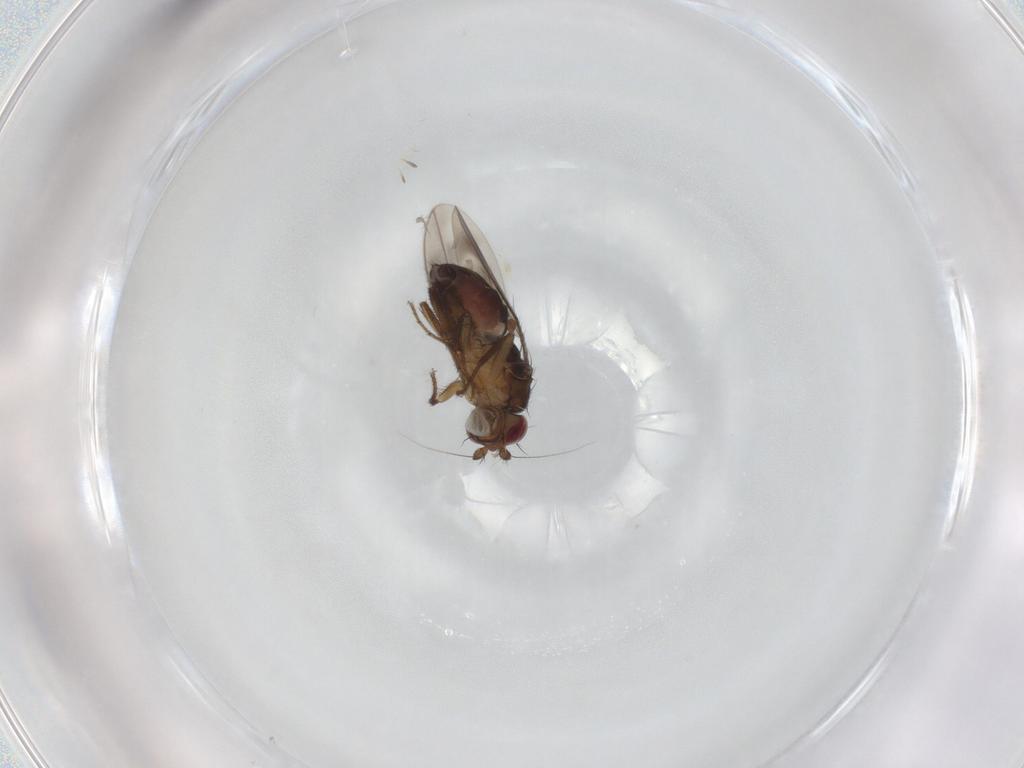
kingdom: Animalia
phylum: Arthropoda
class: Insecta
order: Diptera
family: Sphaeroceridae
